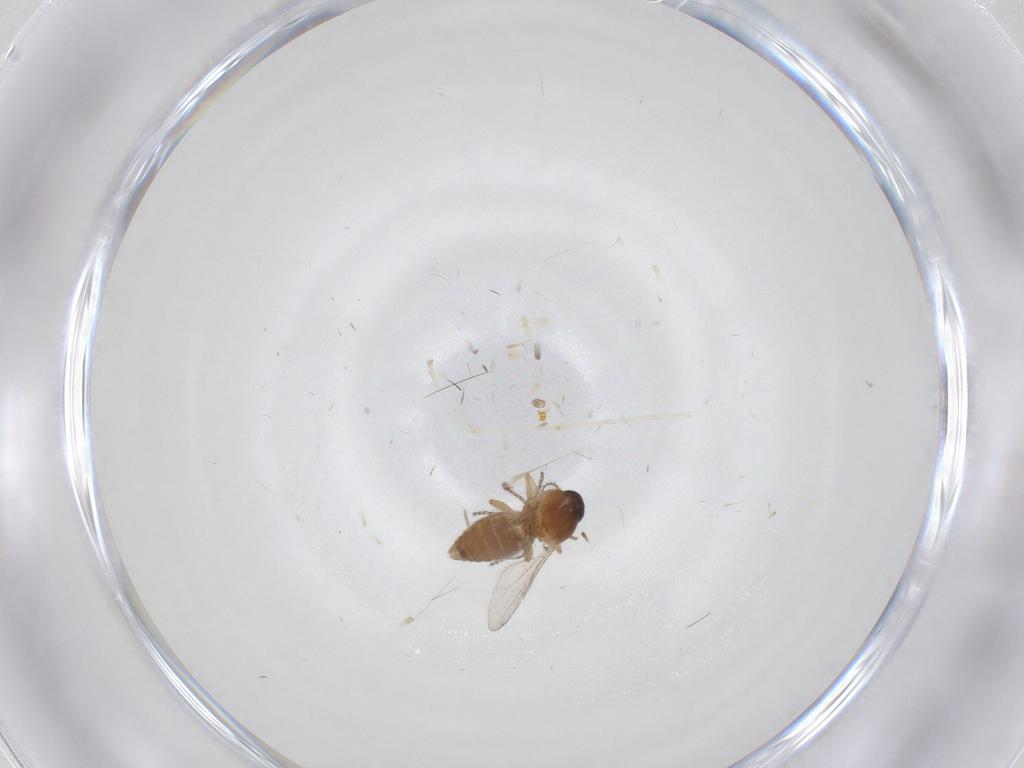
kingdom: Animalia
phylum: Arthropoda
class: Insecta
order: Diptera
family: Ceratopogonidae
